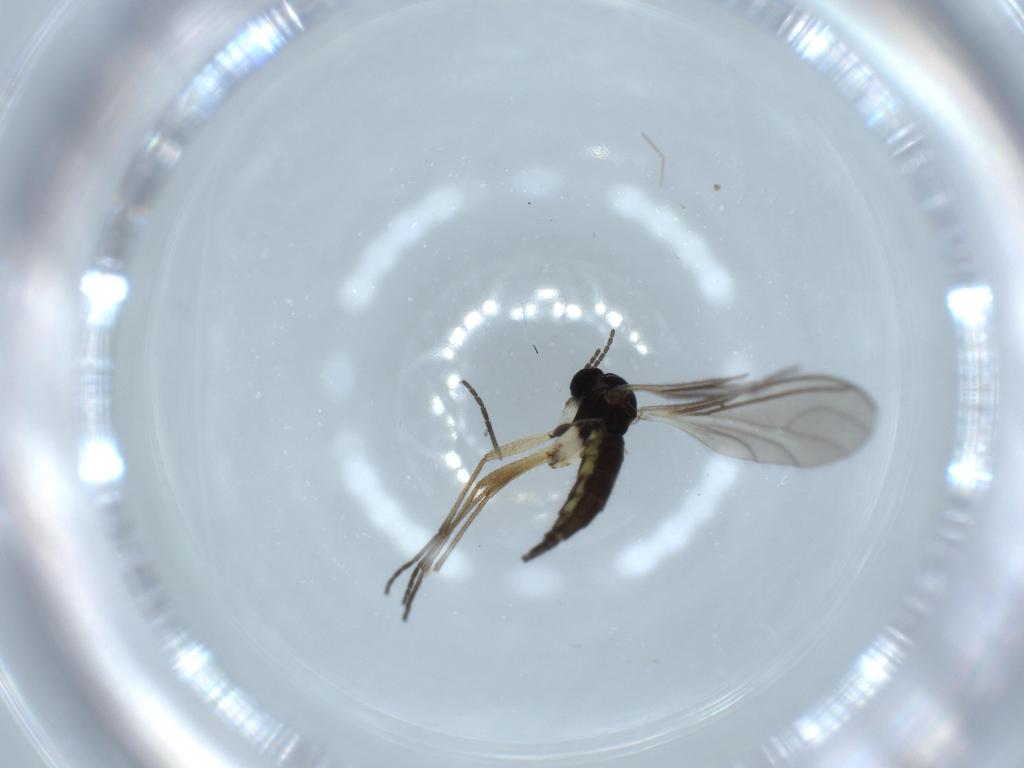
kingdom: Animalia
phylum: Arthropoda
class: Insecta
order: Diptera
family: Sciaridae
